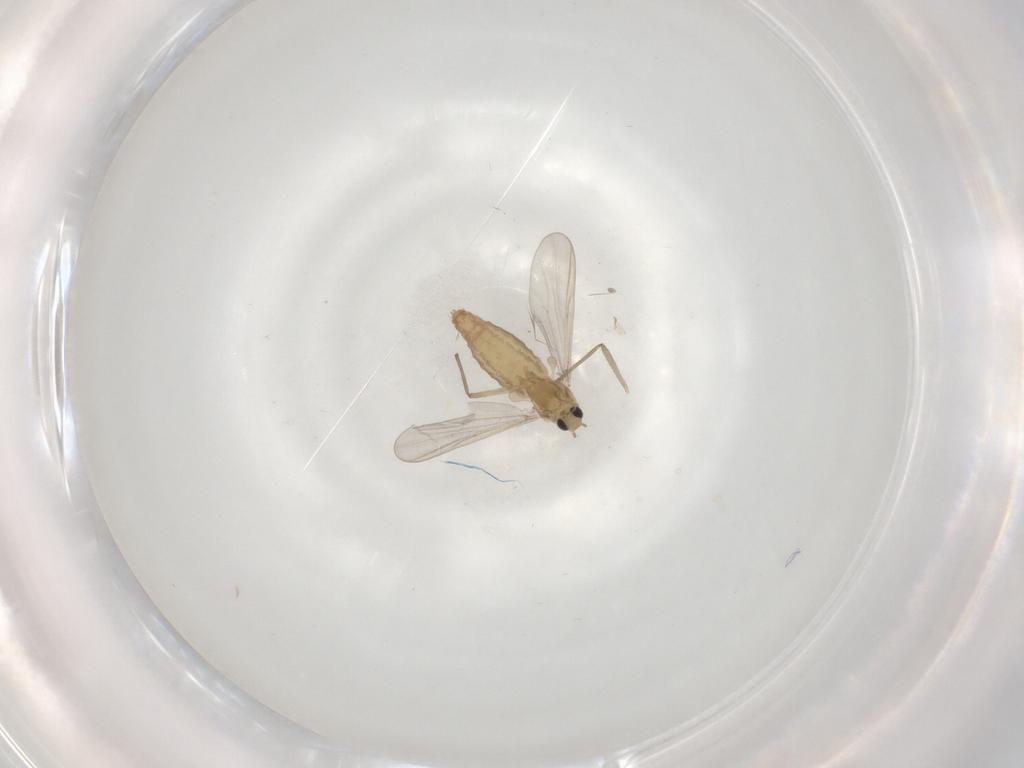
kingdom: Animalia
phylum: Arthropoda
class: Insecta
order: Diptera
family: Chironomidae
